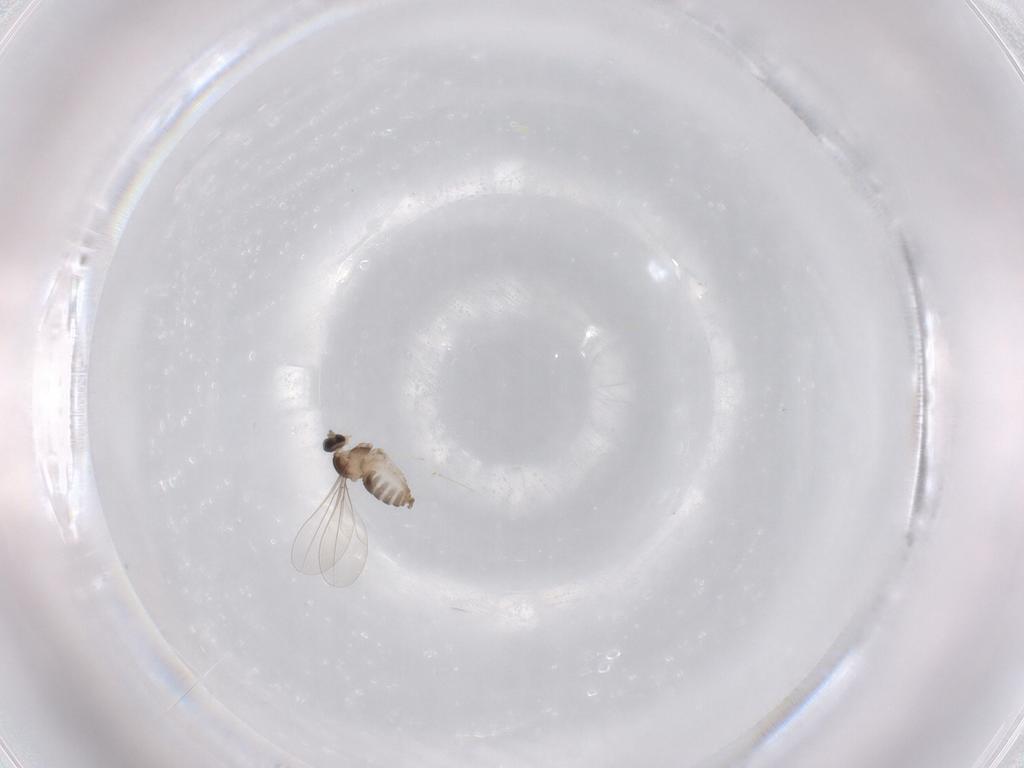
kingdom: Animalia
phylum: Arthropoda
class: Insecta
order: Diptera
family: Cecidomyiidae
